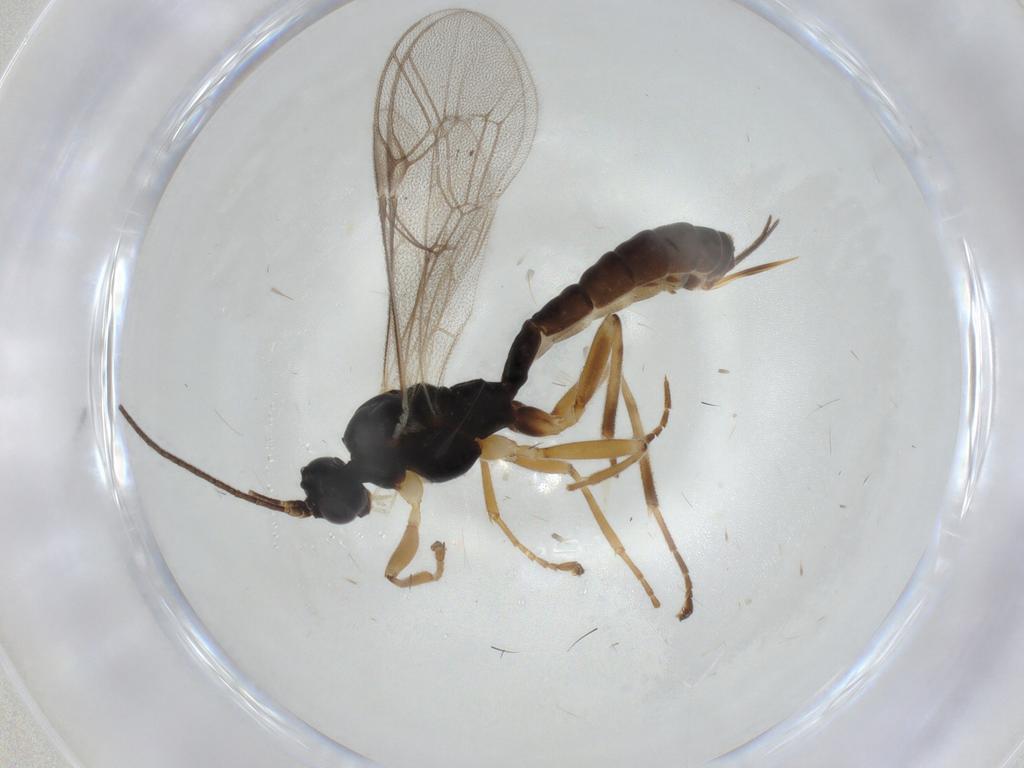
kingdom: Animalia
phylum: Arthropoda
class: Insecta
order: Hymenoptera
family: Ichneumonidae
